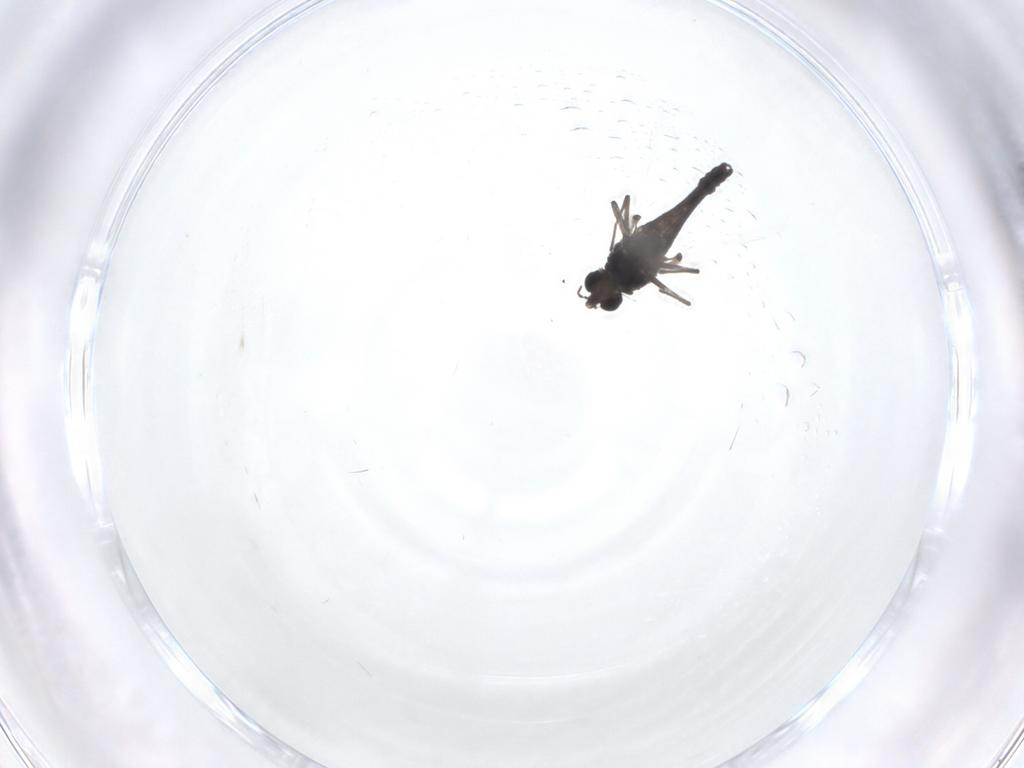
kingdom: Animalia
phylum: Arthropoda
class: Insecta
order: Diptera
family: Chironomidae
